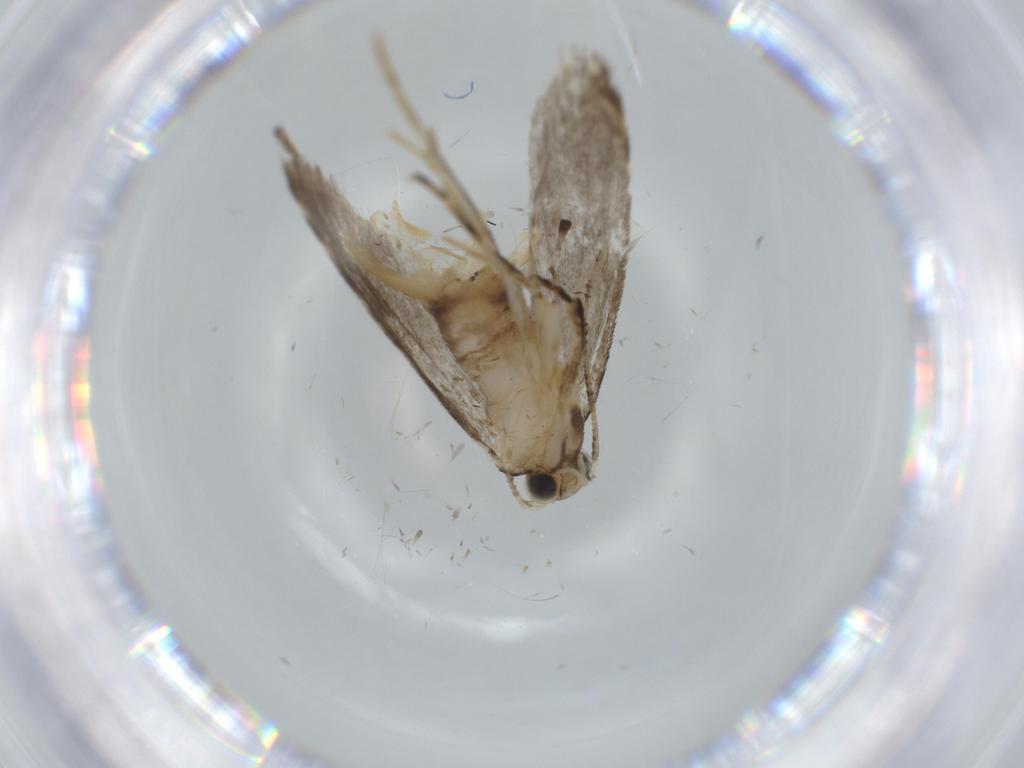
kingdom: Animalia
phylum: Arthropoda
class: Insecta
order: Lepidoptera
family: Tineidae
